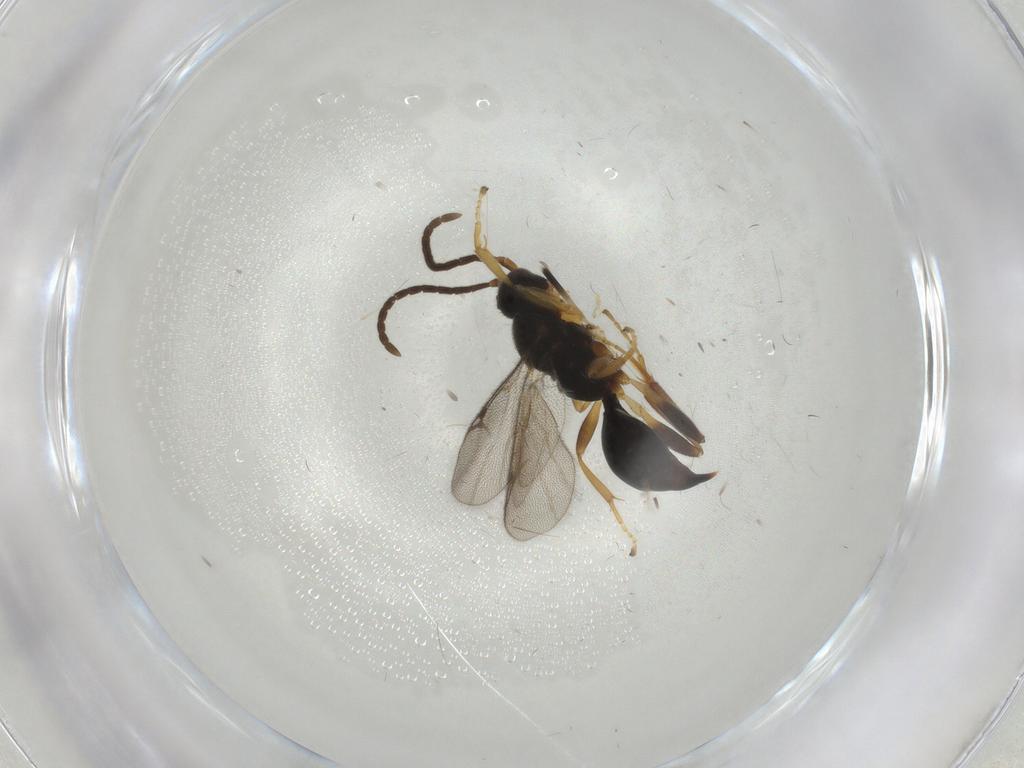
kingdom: Animalia
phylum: Arthropoda
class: Insecta
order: Hymenoptera
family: Proctotrupidae
